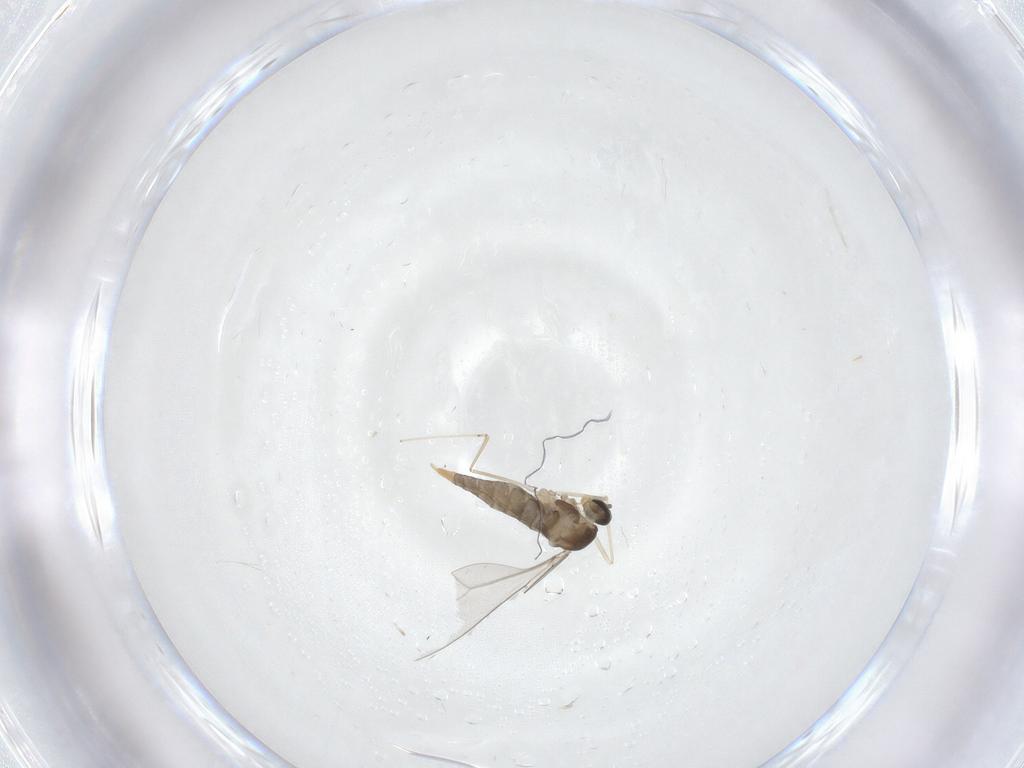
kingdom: Animalia
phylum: Arthropoda
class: Insecta
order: Diptera
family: Cecidomyiidae
